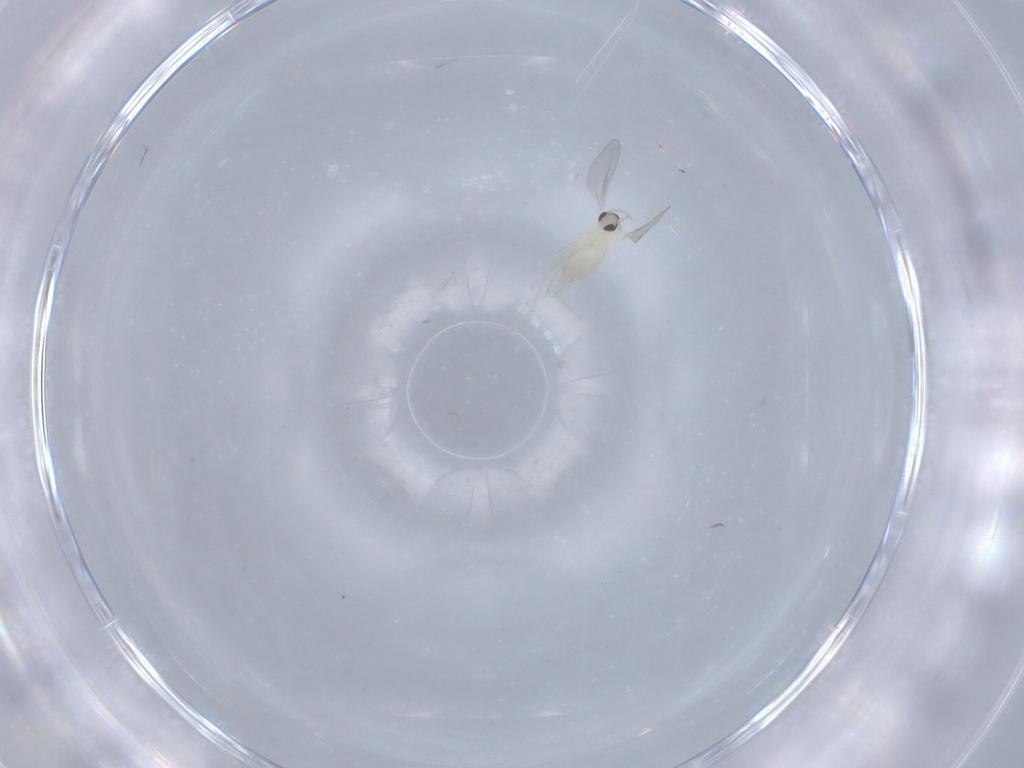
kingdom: Animalia
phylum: Arthropoda
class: Insecta
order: Diptera
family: Cecidomyiidae
